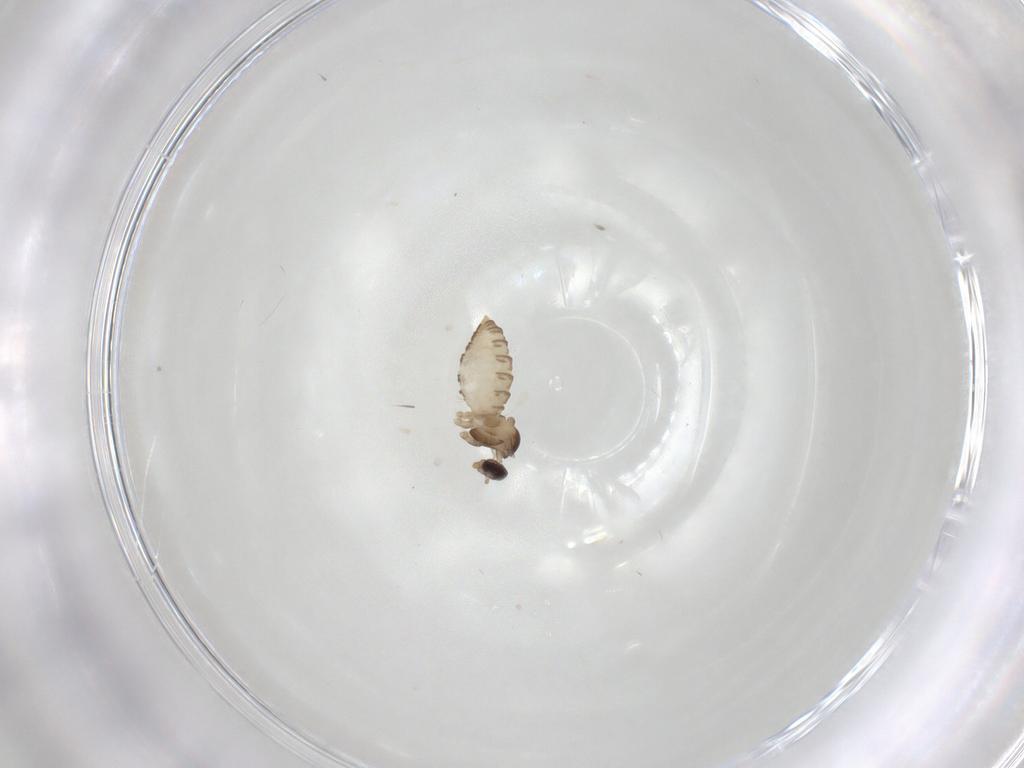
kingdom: Animalia
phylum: Arthropoda
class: Insecta
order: Diptera
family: Cecidomyiidae
